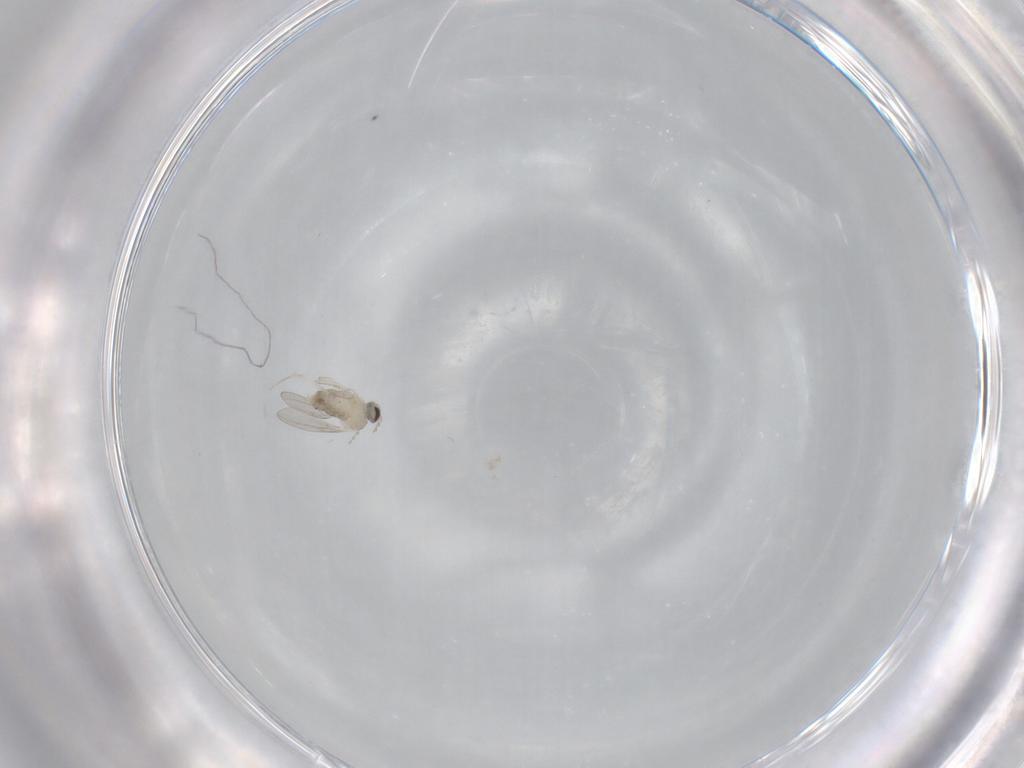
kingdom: Animalia
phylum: Arthropoda
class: Insecta
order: Diptera
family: Cecidomyiidae
